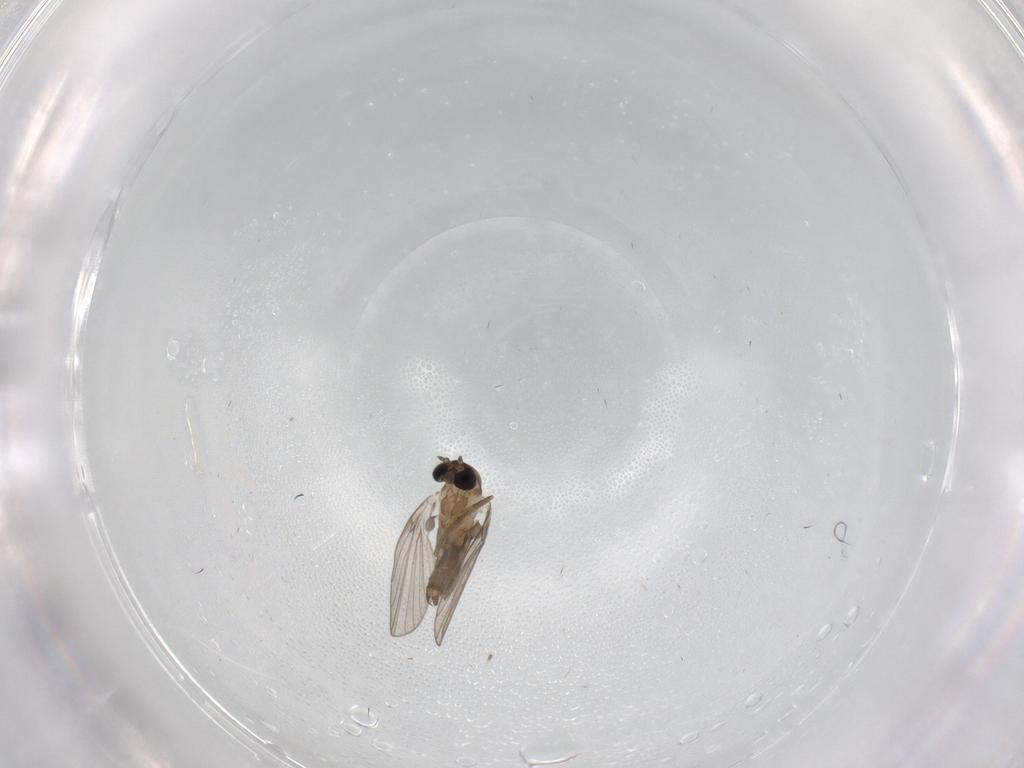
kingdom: Animalia
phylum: Arthropoda
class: Insecta
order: Diptera
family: Psychodidae
